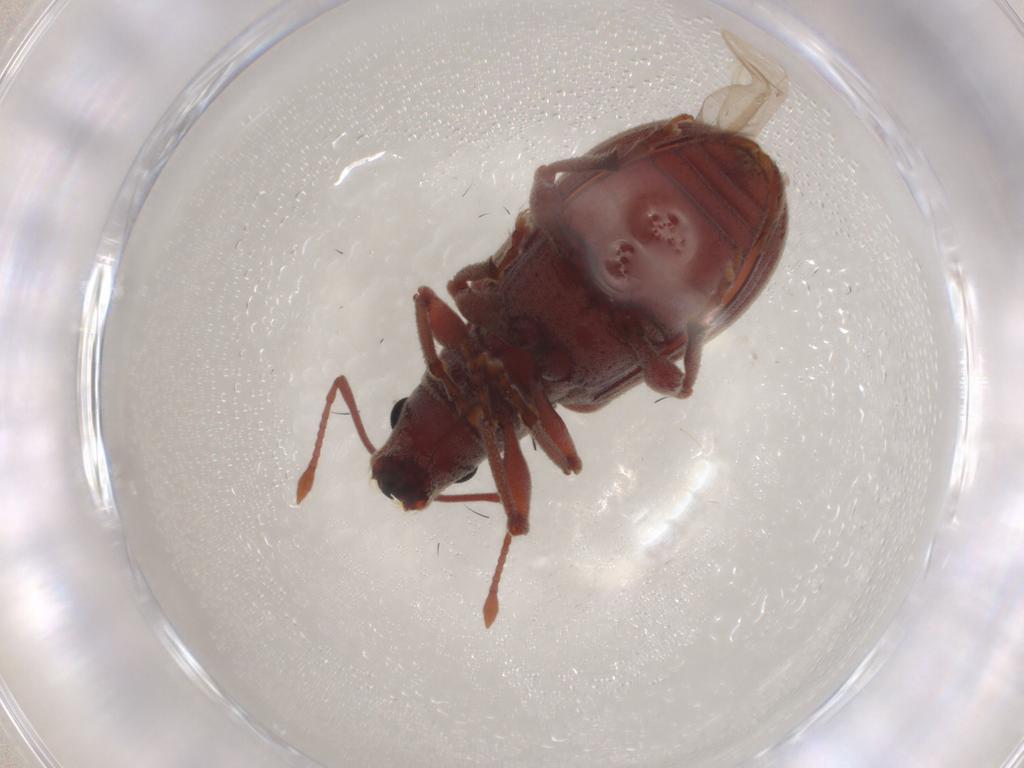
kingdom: Animalia
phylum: Arthropoda
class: Insecta
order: Coleoptera
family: Curculionidae
